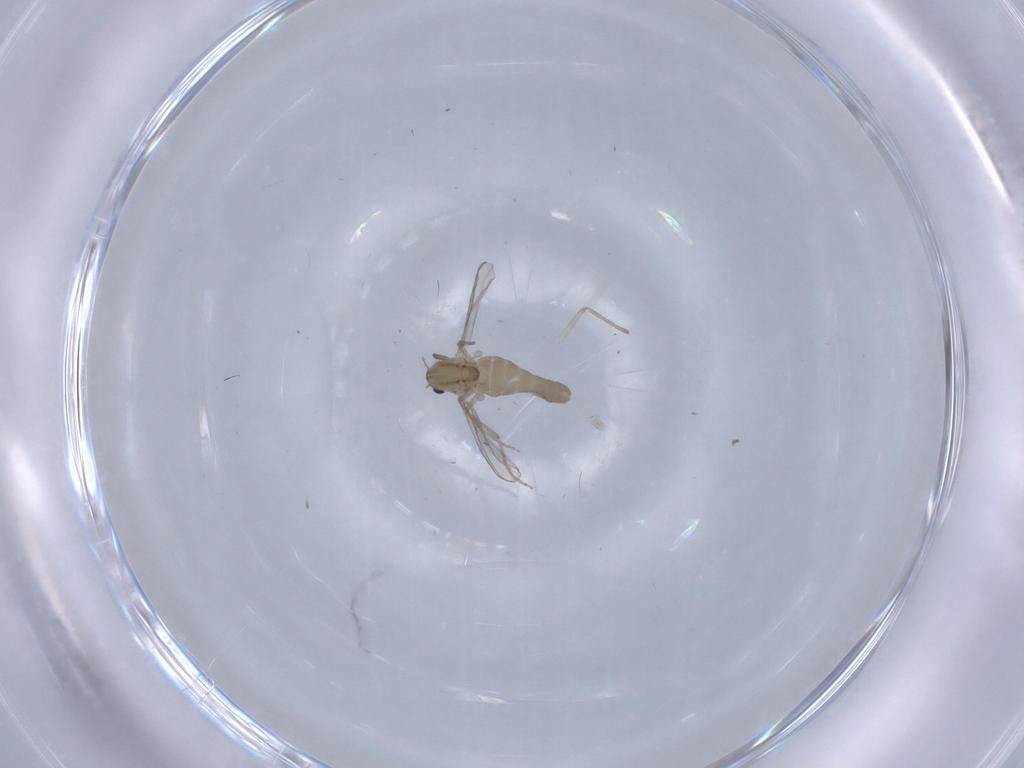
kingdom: Animalia
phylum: Arthropoda
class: Insecta
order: Diptera
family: Chironomidae
